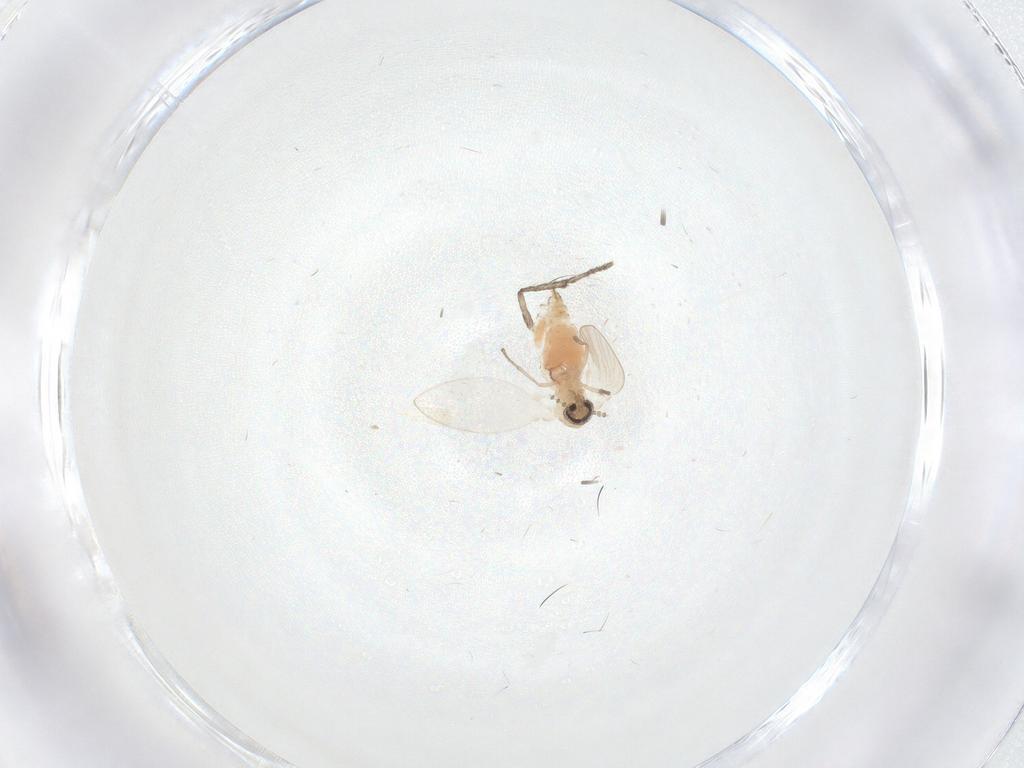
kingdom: Animalia
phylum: Arthropoda
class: Insecta
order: Diptera
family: Psychodidae
